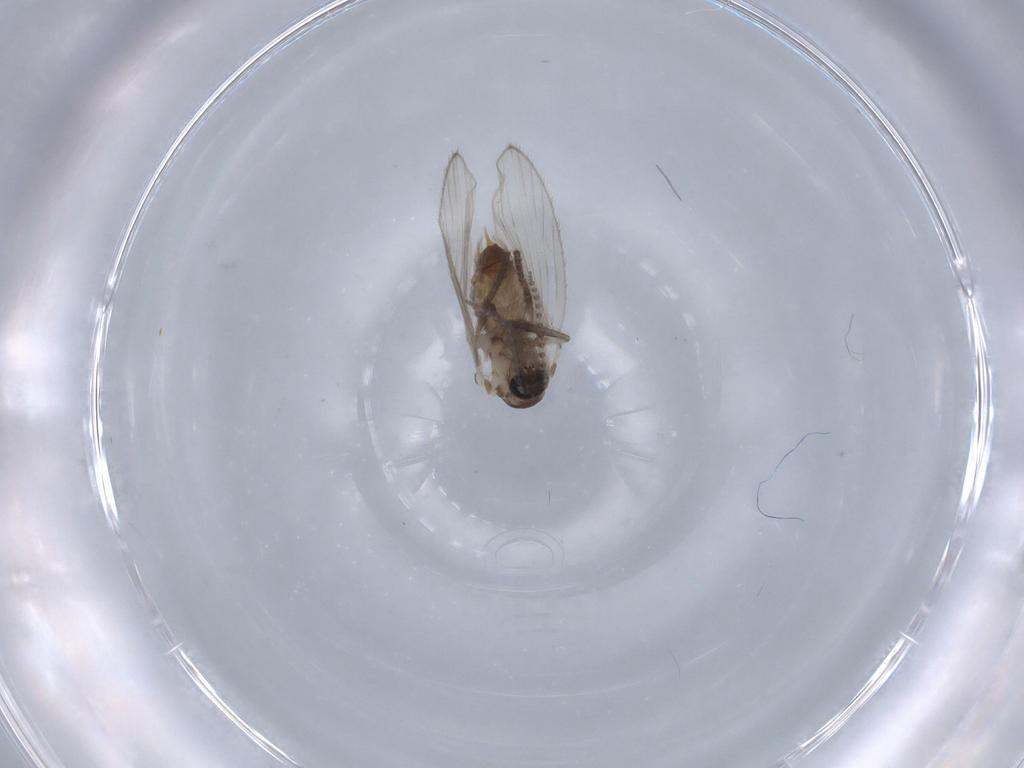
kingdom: Animalia
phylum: Arthropoda
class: Insecta
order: Diptera
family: Psychodidae
